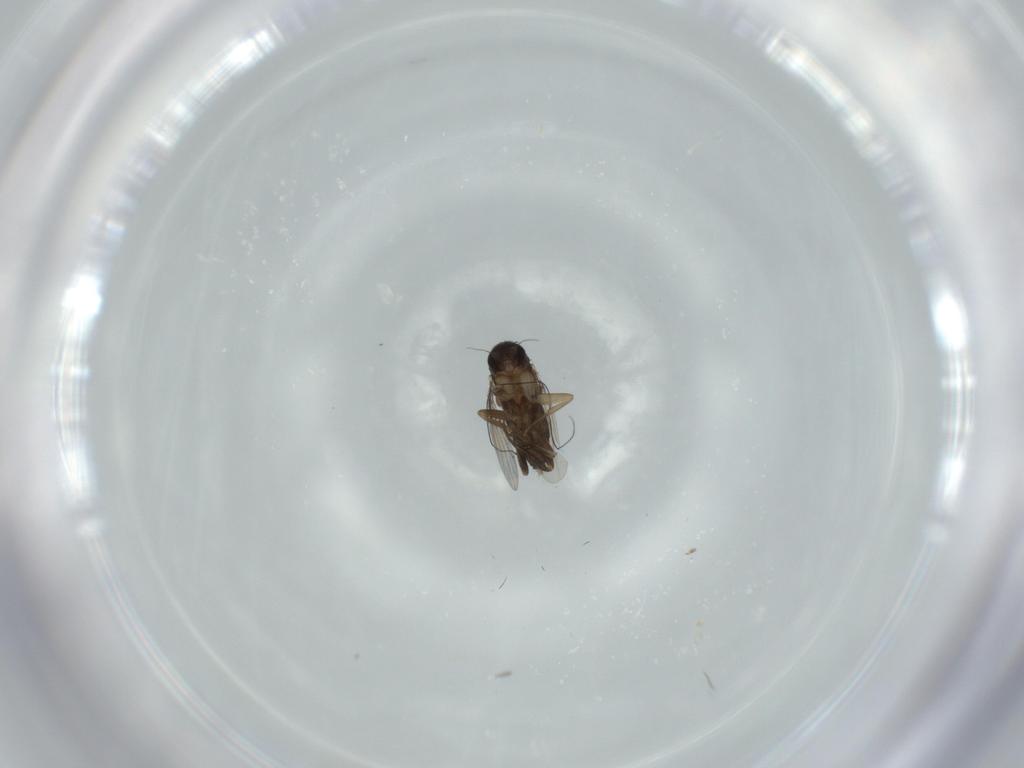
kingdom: Animalia
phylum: Arthropoda
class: Insecta
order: Diptera
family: Phoridae
